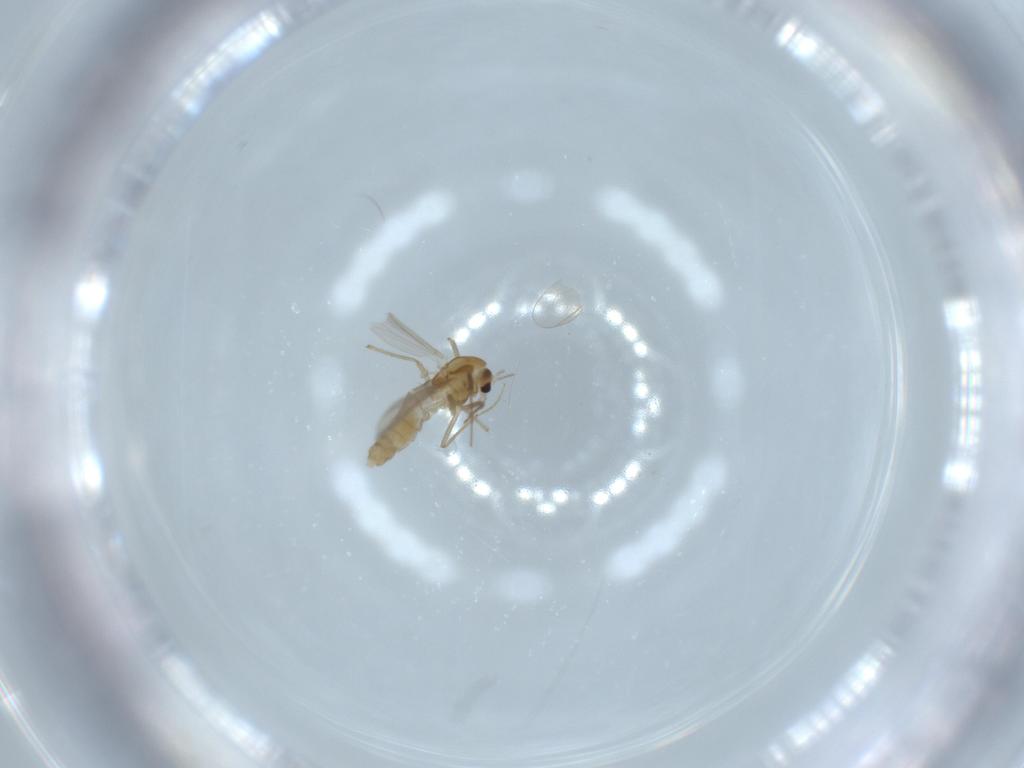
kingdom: Animalia
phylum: Arthropoda
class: Insecta
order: Diptera
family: Chironomidae
